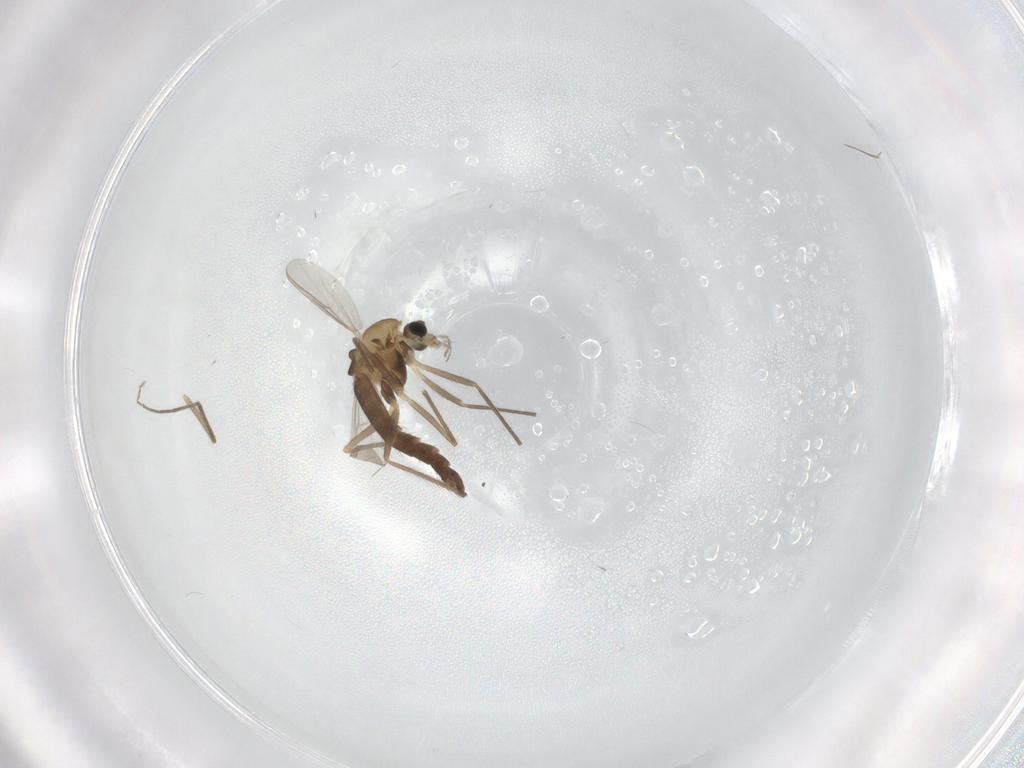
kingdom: Animalia
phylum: Arthropoda
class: Insecta
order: Diptera
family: Chironomidae
